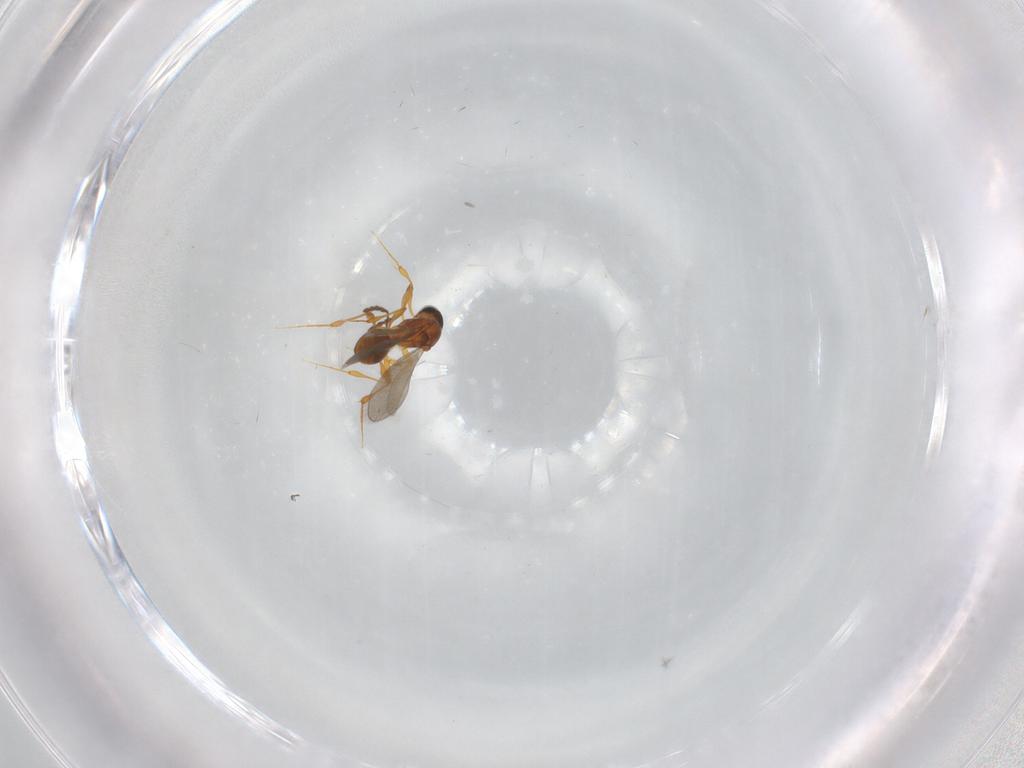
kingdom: Animalia
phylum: Arthropoda
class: Insecta
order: Hymenoptera
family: Platygastridae
